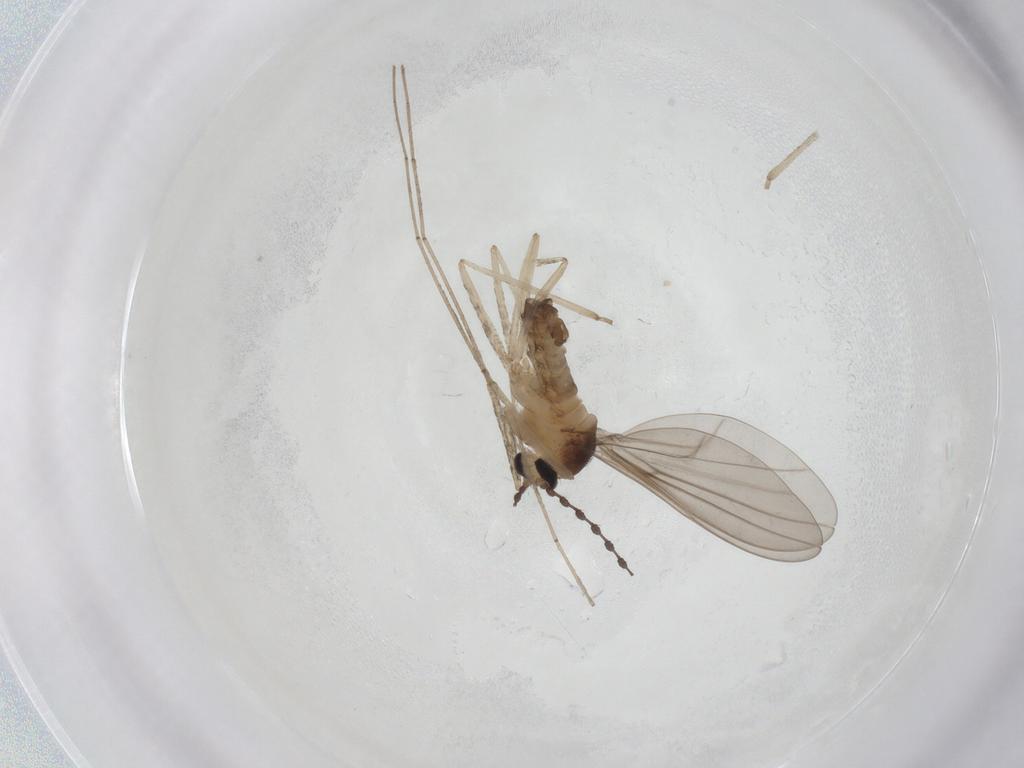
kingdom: Animalia
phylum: Arthropoda
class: Insecta
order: Diptera
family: Cecidomyiidae
